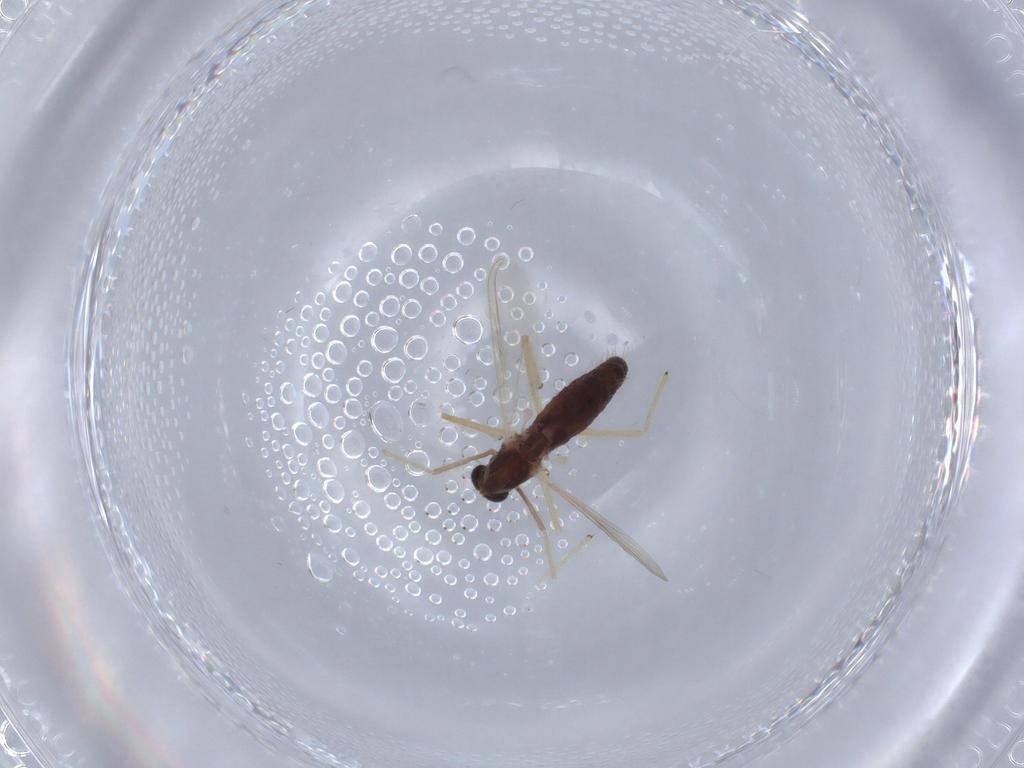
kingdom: Animalia
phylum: Arthropoda
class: Insecta
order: Diptera
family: Chironomidae
